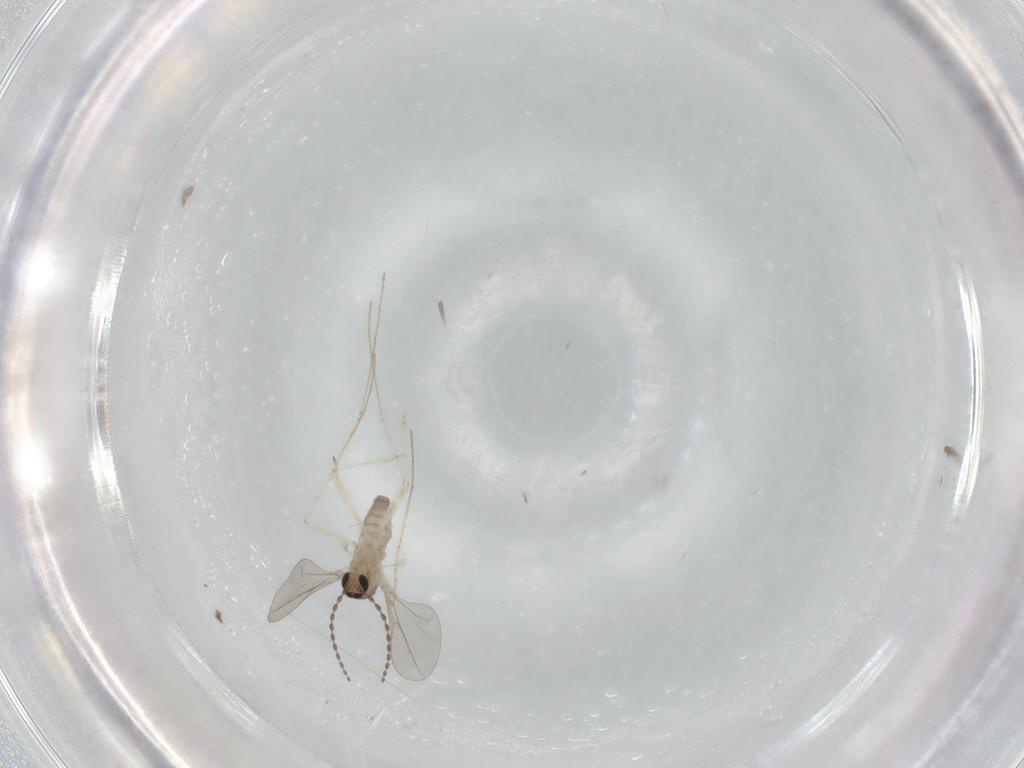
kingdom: Animalia
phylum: Arthropoda
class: Insecta
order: Diptera
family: Cecidomyiidae
